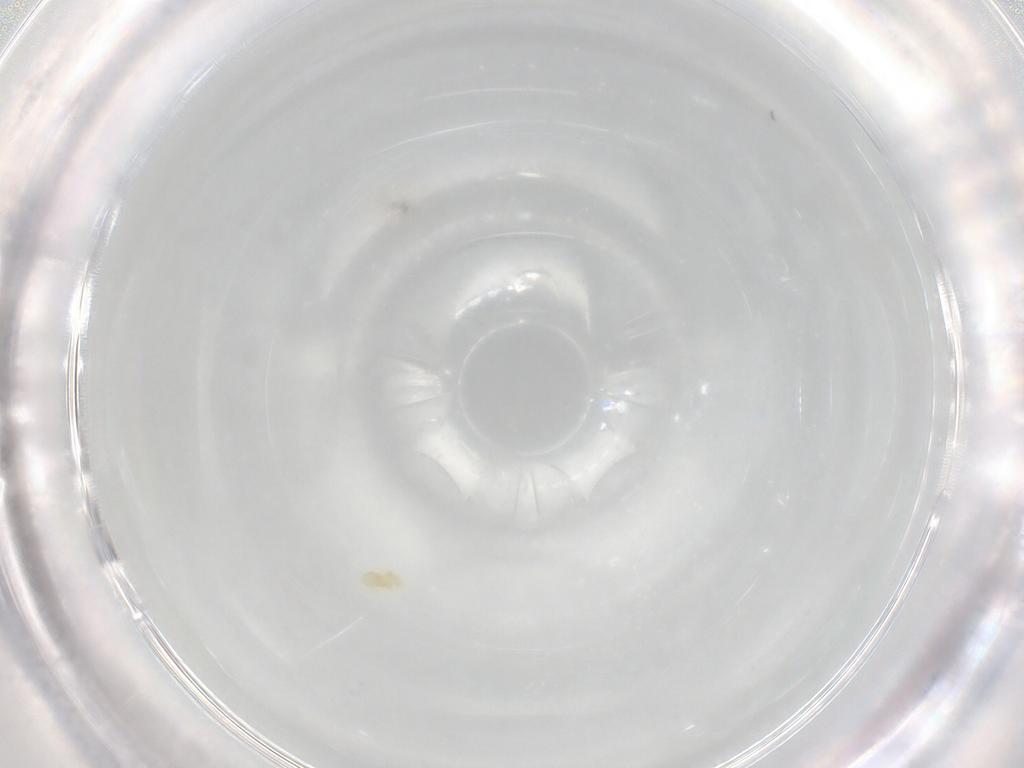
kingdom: Animalia
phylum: Arthropoda
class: Arachnida
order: Trombidiformes
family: Eupodidae
